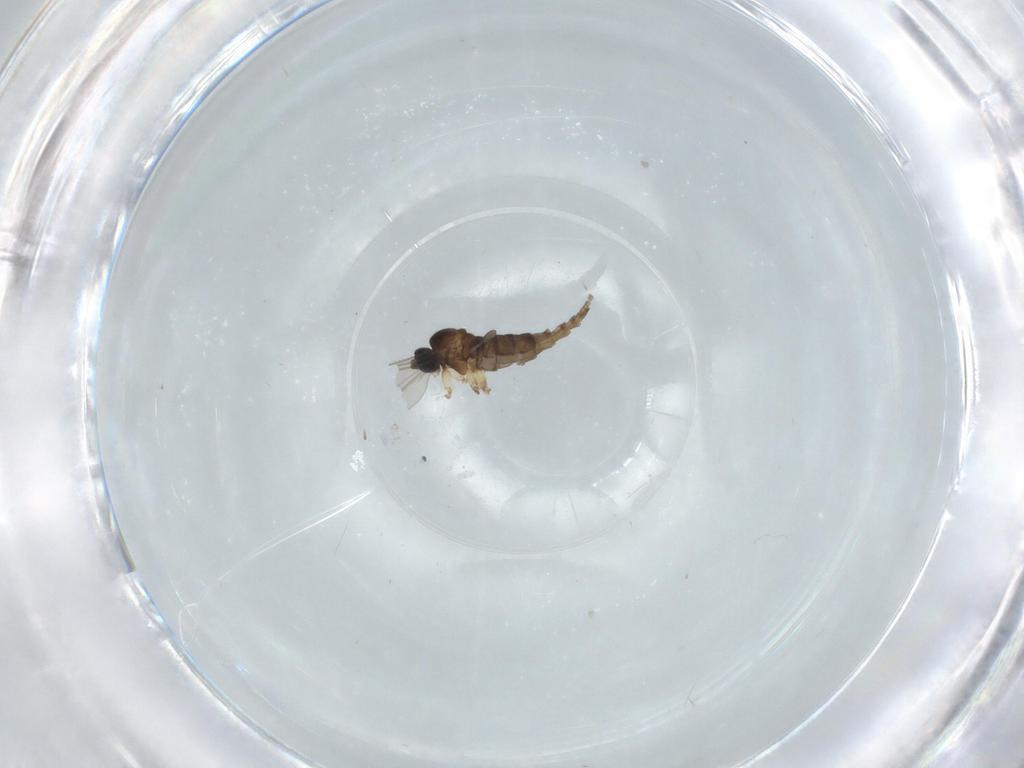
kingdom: Animalia
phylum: Arthropoda
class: Insecta
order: Diptera
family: Sciaridae
